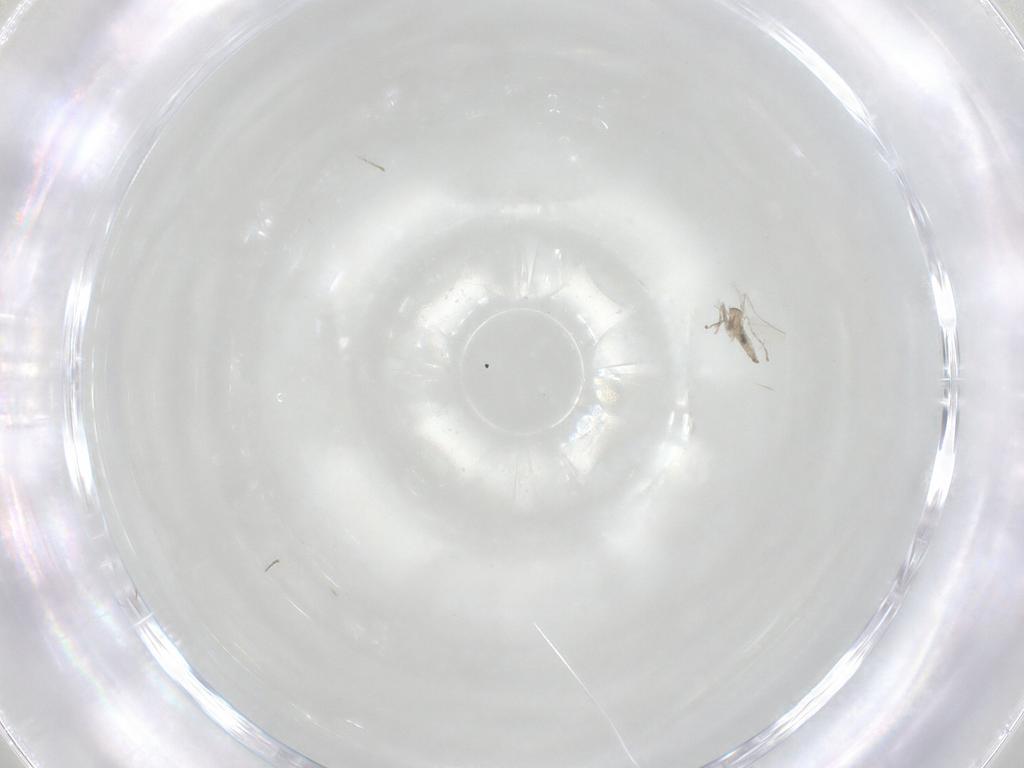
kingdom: Animalia
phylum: Arthropoda
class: Insecta
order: Diptera
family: Cecidomyiidae
